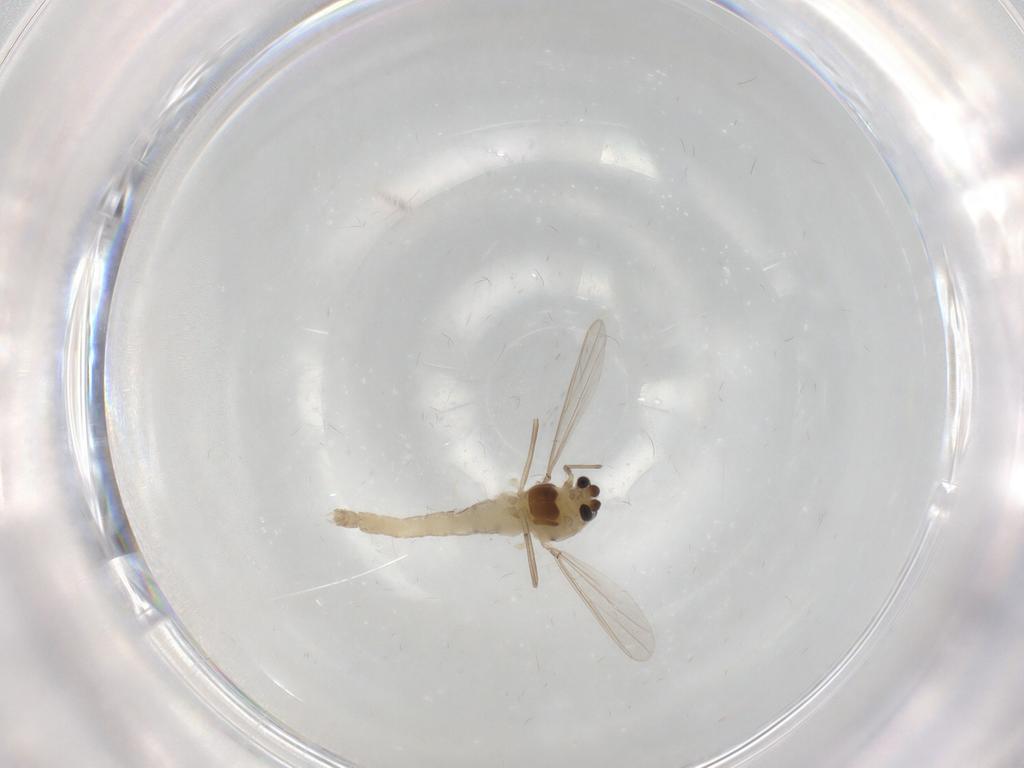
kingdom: Animalia
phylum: Arthropoda
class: Insecta
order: Diptera
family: Chironomidae
